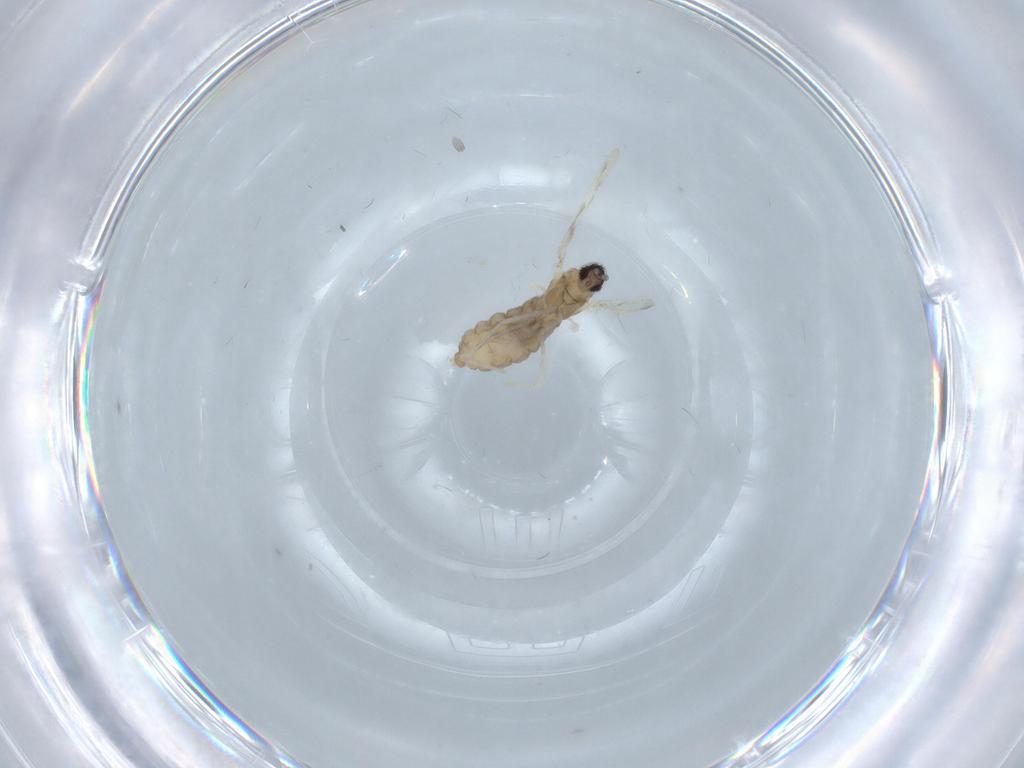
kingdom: Animalia
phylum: Arthropoda
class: Insecta
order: Diptera
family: Cecidomyiidae
